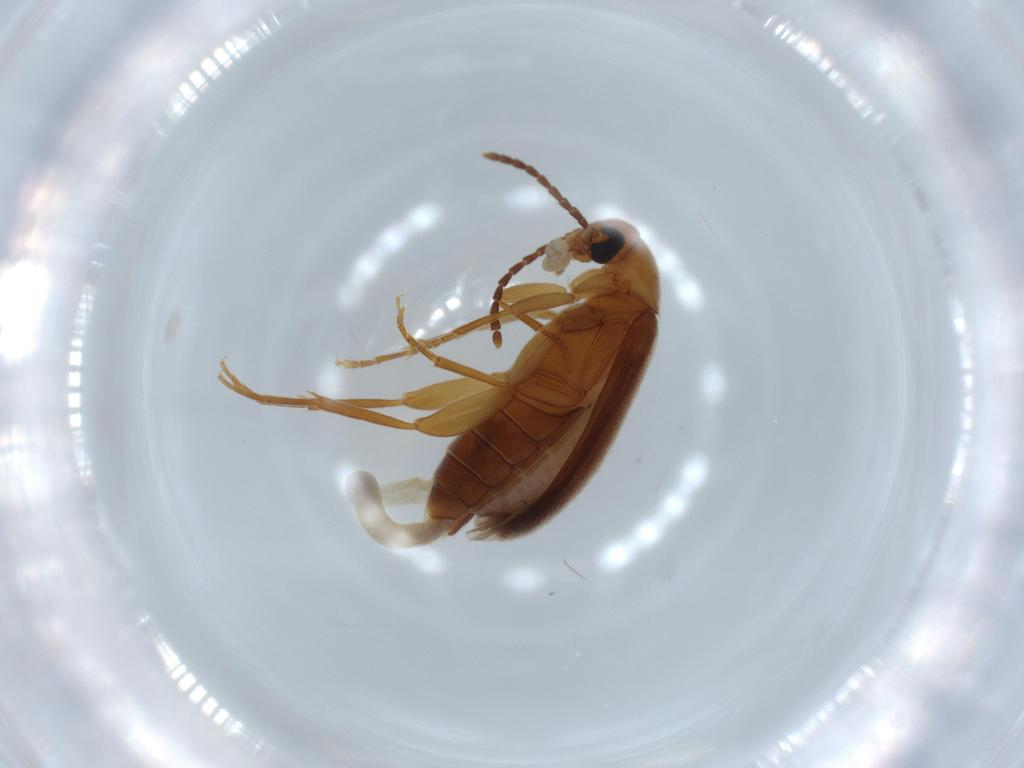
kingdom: Animalia
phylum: Arthropoda
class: Insecta
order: Coleoptera
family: Scraptiidae
